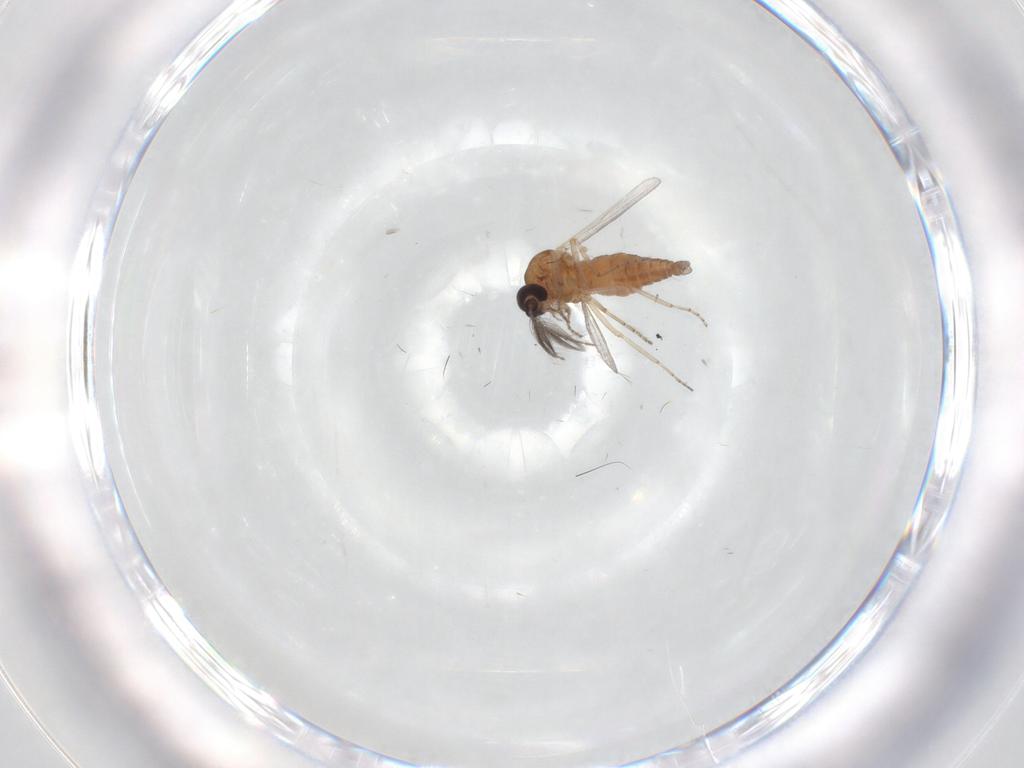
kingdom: Animalia
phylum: Arthropoda
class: Insecta
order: Diptera
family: Ceratopogonidae
